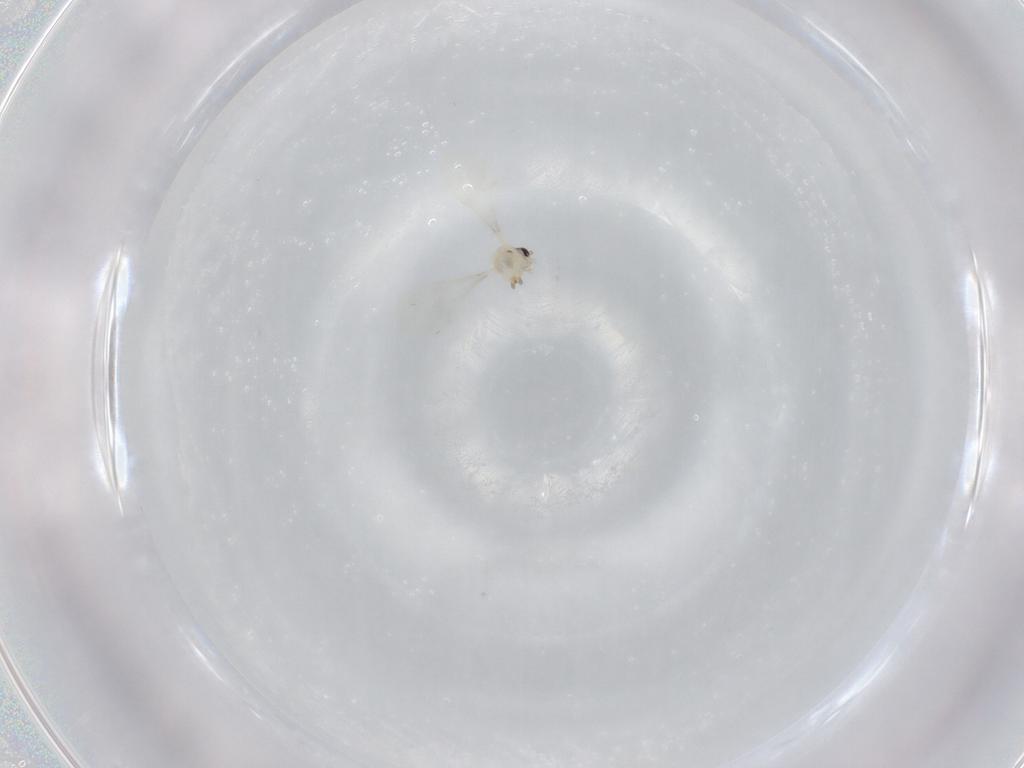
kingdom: Animalia
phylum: Arthropoda
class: Insecta
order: Diptera
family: Cecidomyiidae
